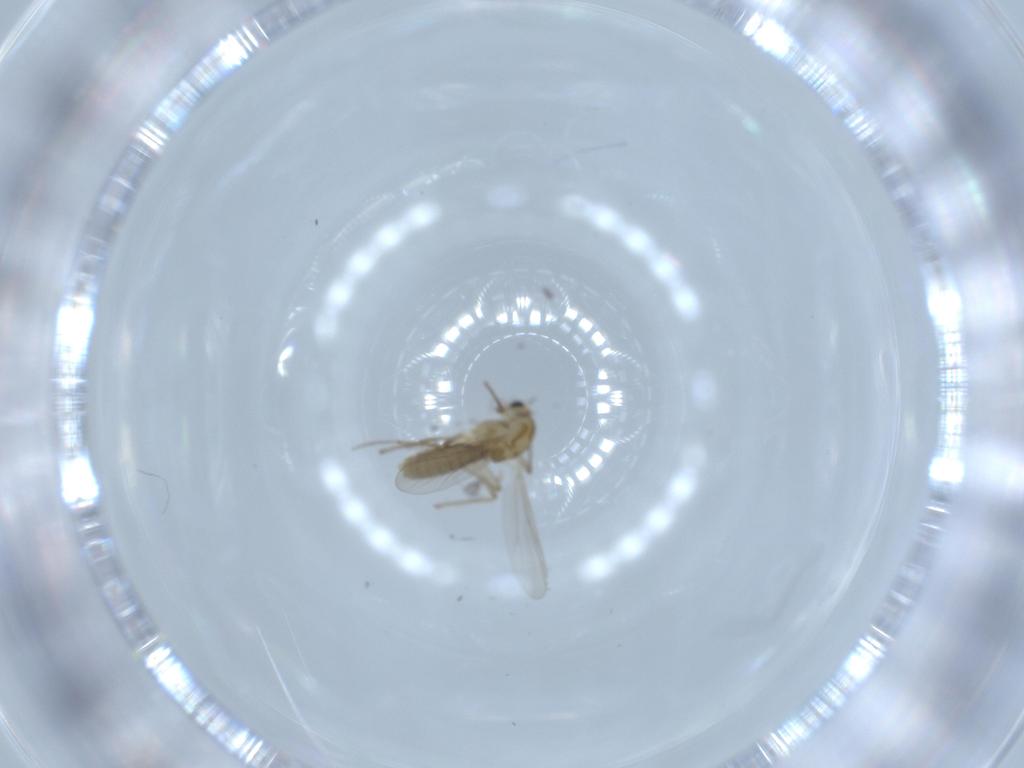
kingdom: Animalia
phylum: Arthropoda
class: Insecta
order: Diptera
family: Chironomidae
